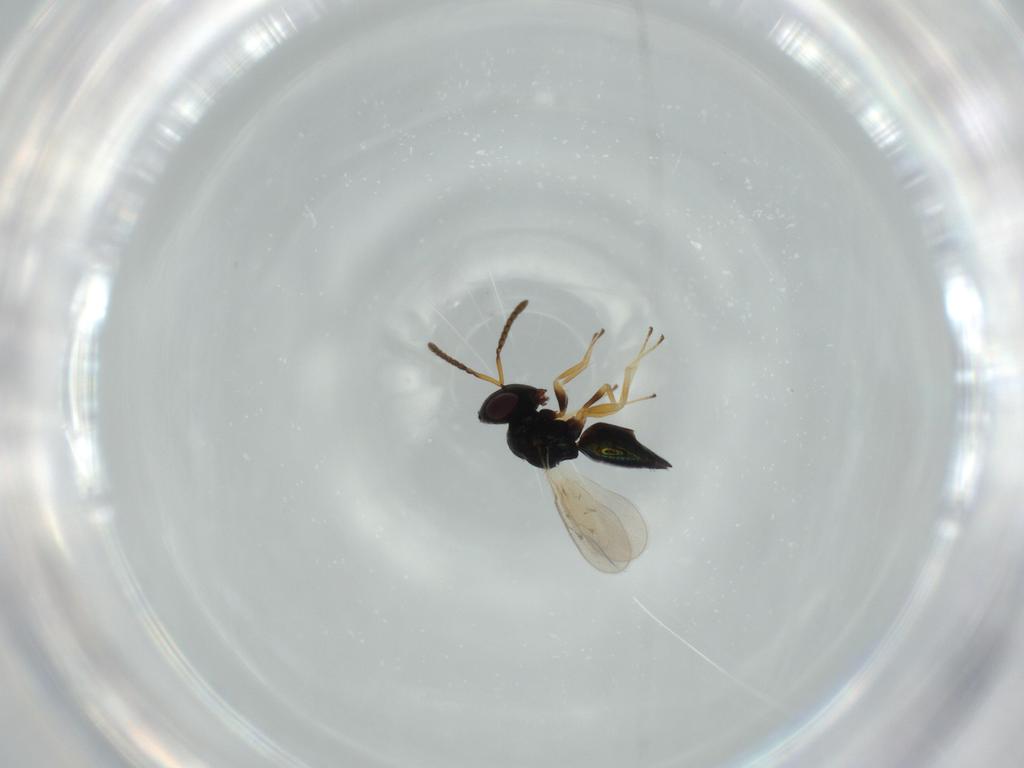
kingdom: Animalia
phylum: Arthropoda
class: Insecta
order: Hymenoptera
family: Pteromalidae
